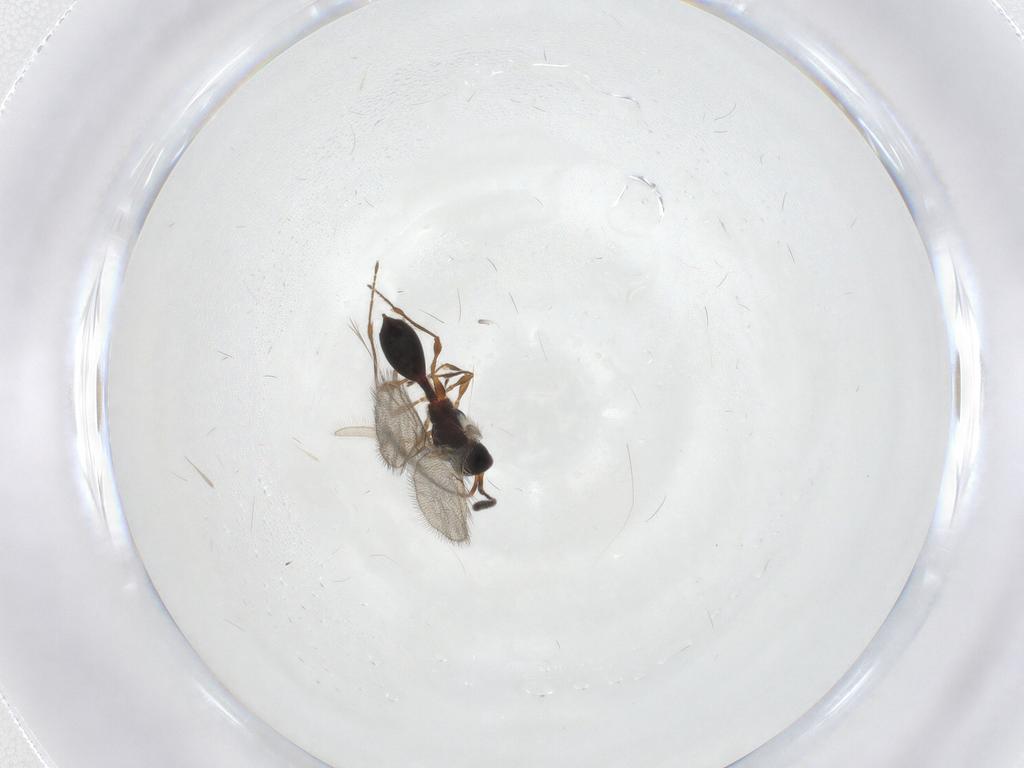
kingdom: Animalia
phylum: Arthropoda
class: Insecta
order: Hymenoptera
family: Diapriidae
